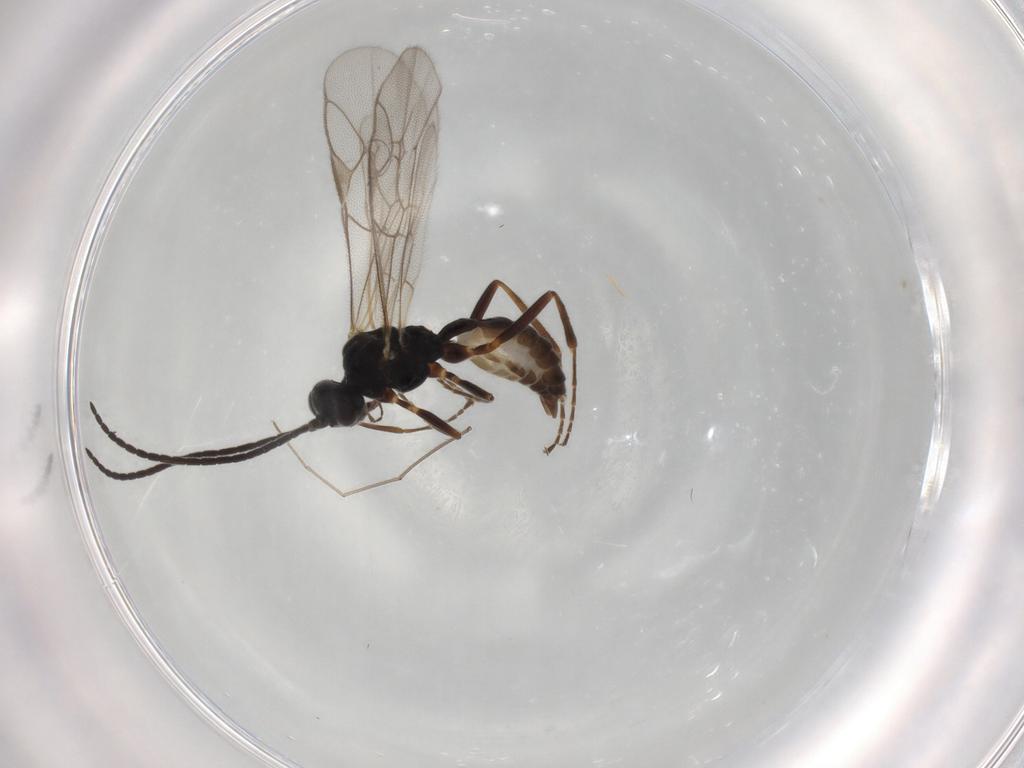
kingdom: Animalia
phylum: Arthropoda
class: Insecta
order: Hymenoptera
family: Ichneumonidae
